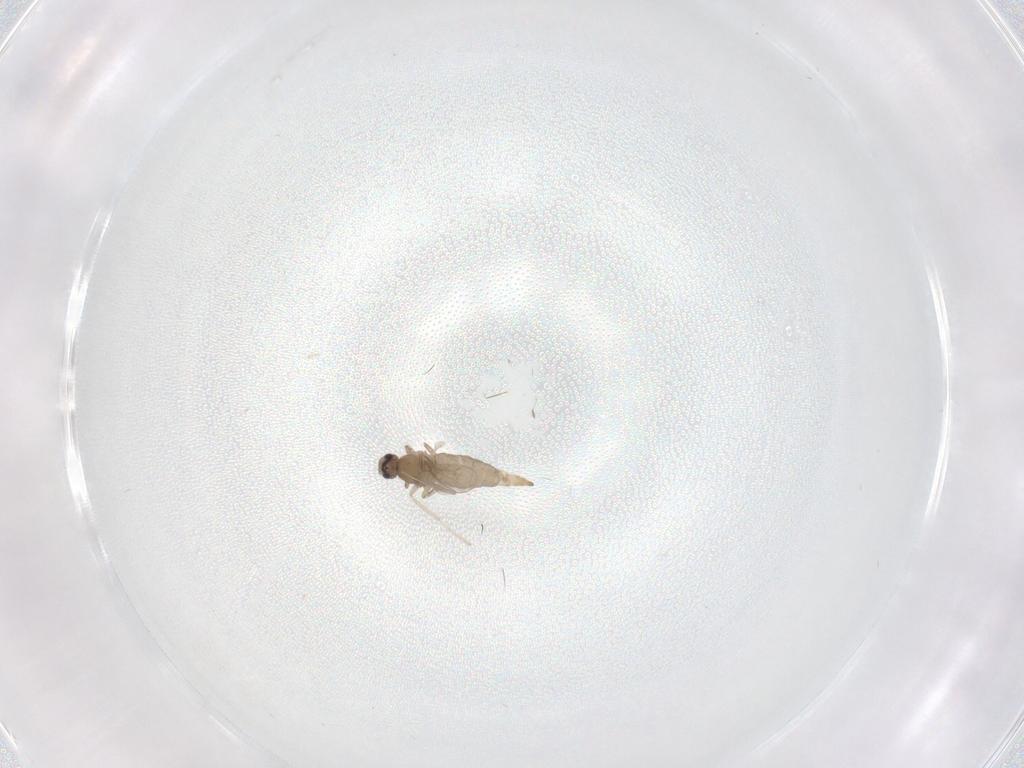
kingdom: Animalia
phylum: Arthropoda
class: Insecta
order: Diptera
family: Cecidomyiidae
